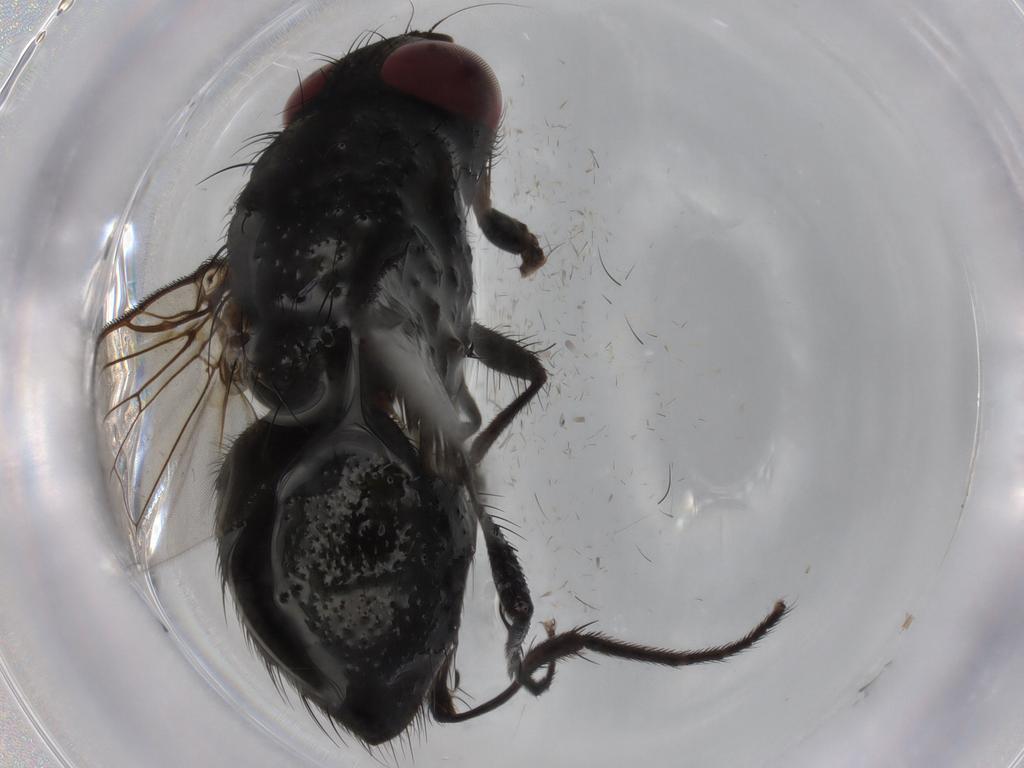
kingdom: Animalia
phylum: Arthropoda
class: Insecta
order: Diptera
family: Muscidae
